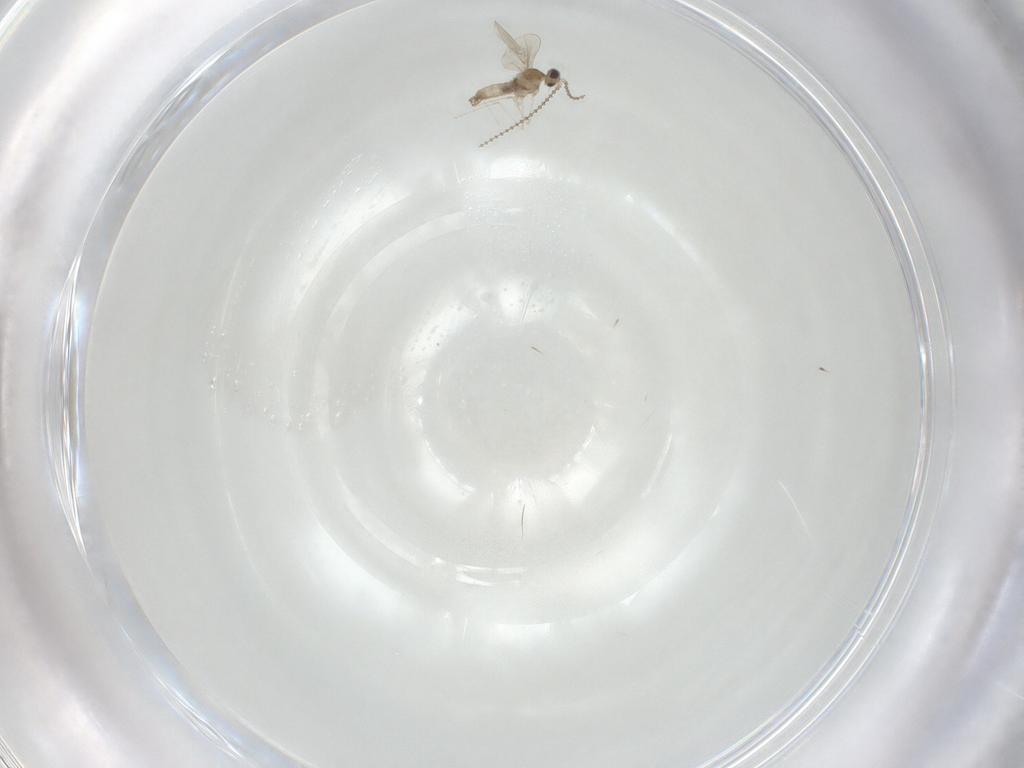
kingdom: Animalia
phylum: Arthropoda
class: Insecta
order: Diptera
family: Cecidomyiidae
